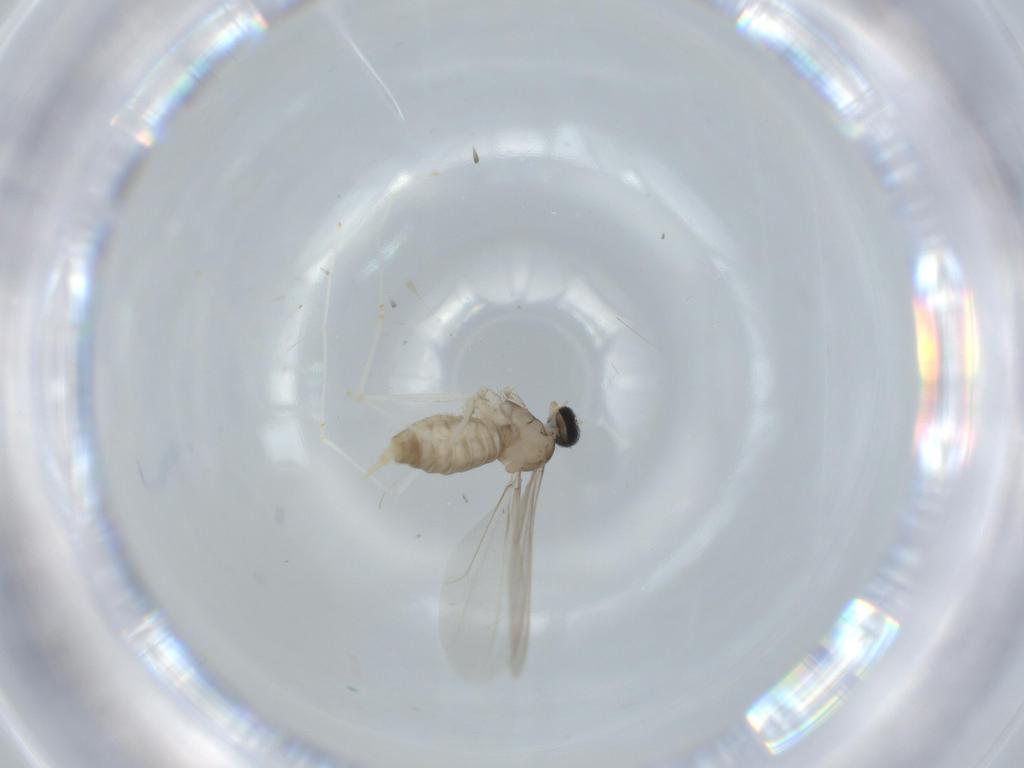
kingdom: Animalia
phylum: Arthropoda
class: Insecta
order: Diptera
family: Cecidomyiidae
